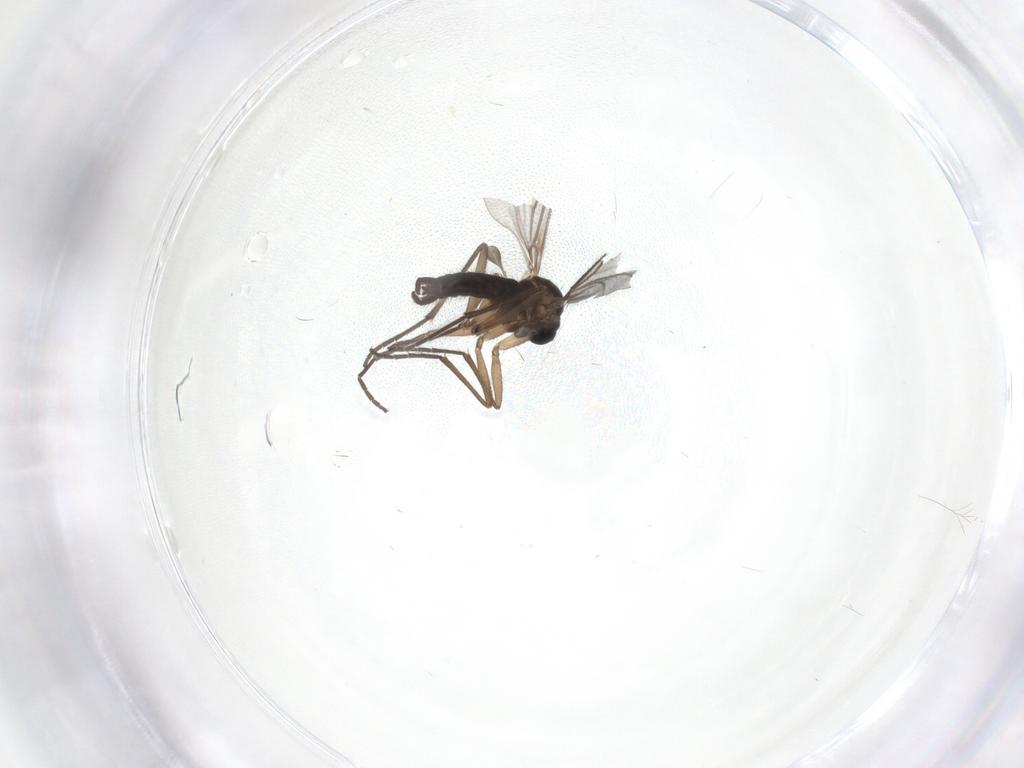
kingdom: Animalia
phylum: Arthropoda
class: Insecta
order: Diptera
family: Sciaridae
